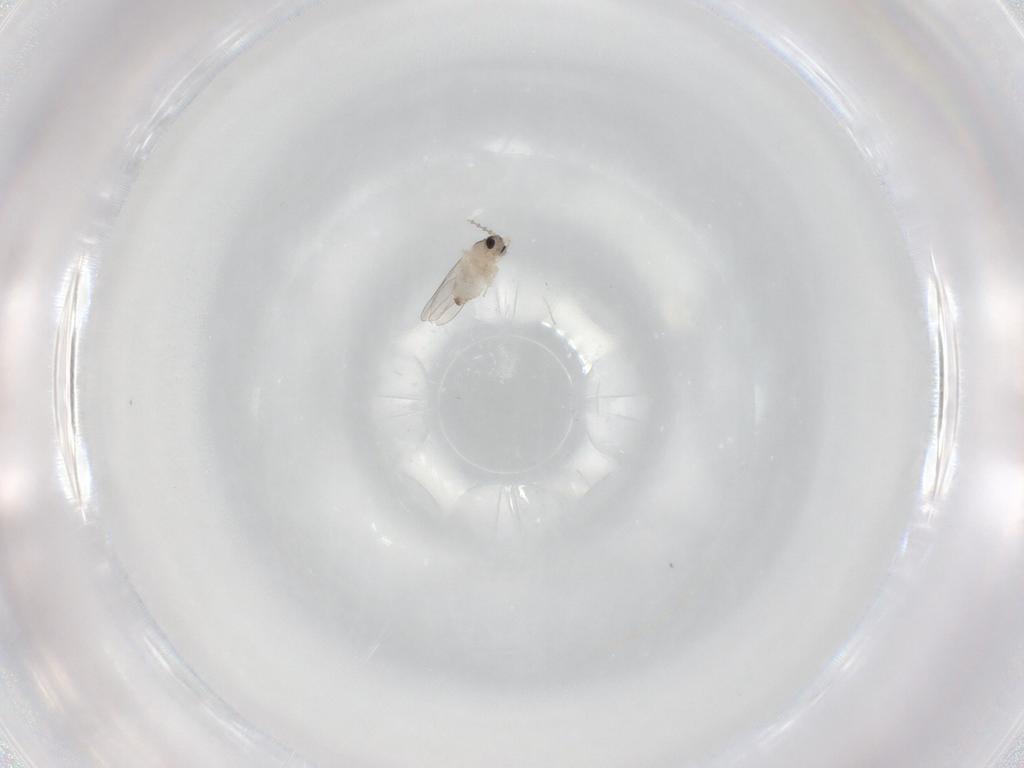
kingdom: Animalia
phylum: Arthropoda
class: Insecta
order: Diptera
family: Cecidomyiidae
